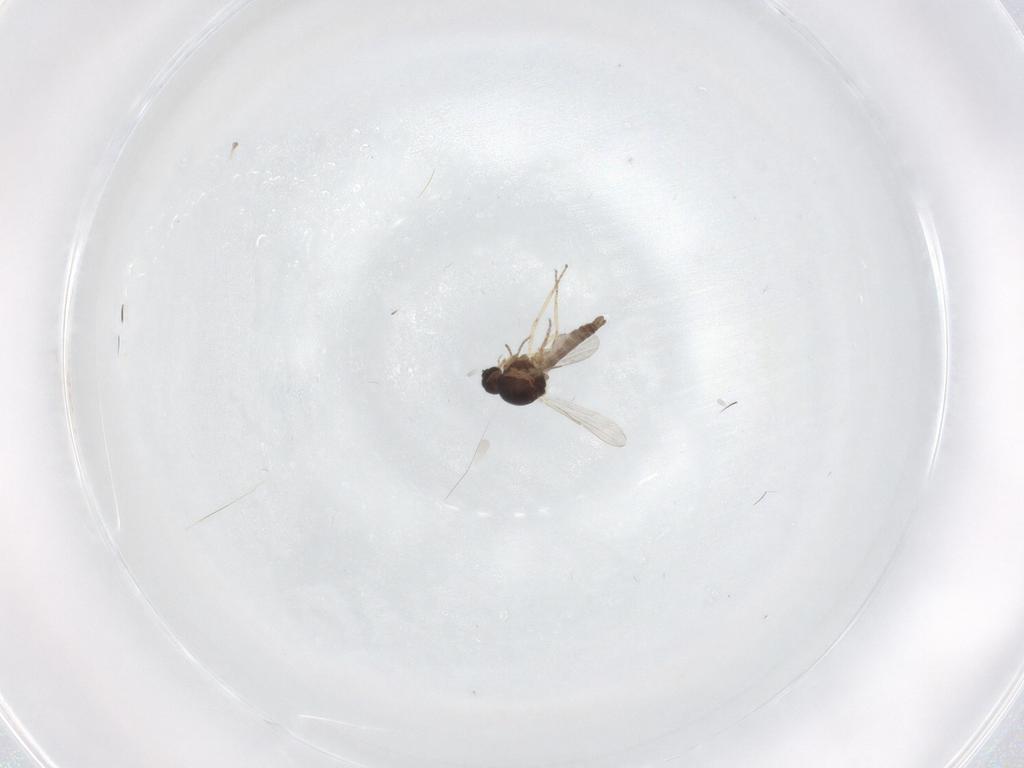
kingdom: Animalia
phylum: Arthropoda
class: Insecta
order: Diptera
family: Ceratopogonidae
